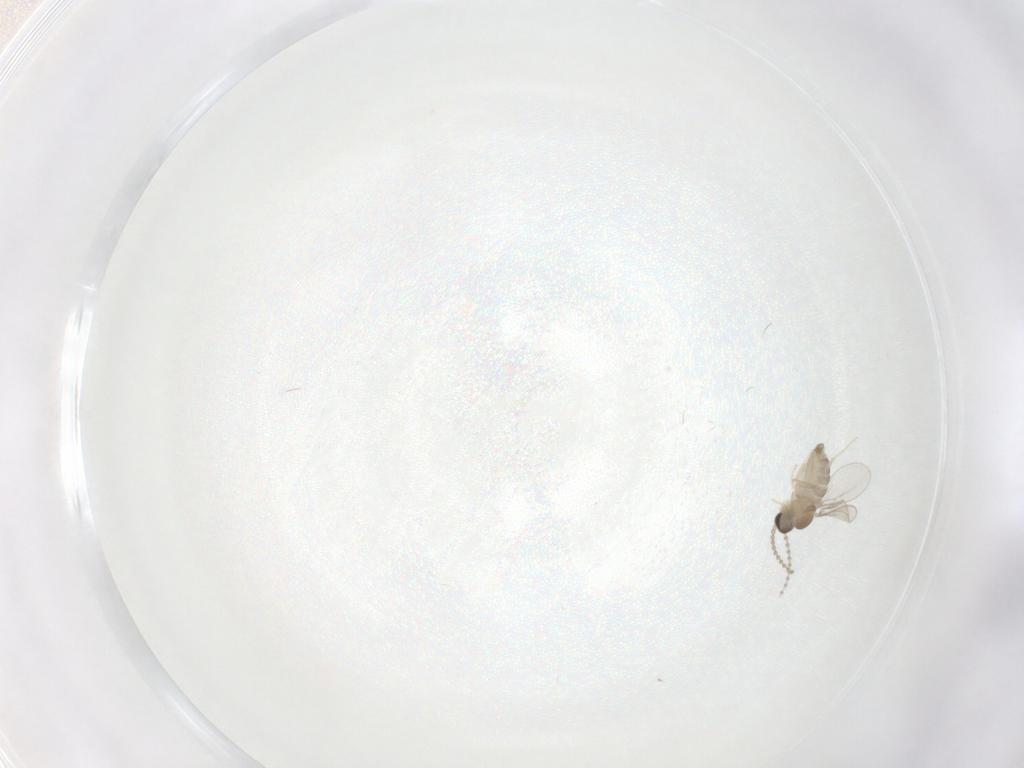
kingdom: Animalia
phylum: Arthropoda
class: Insecta
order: Diptera
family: Cecidomyiidae
